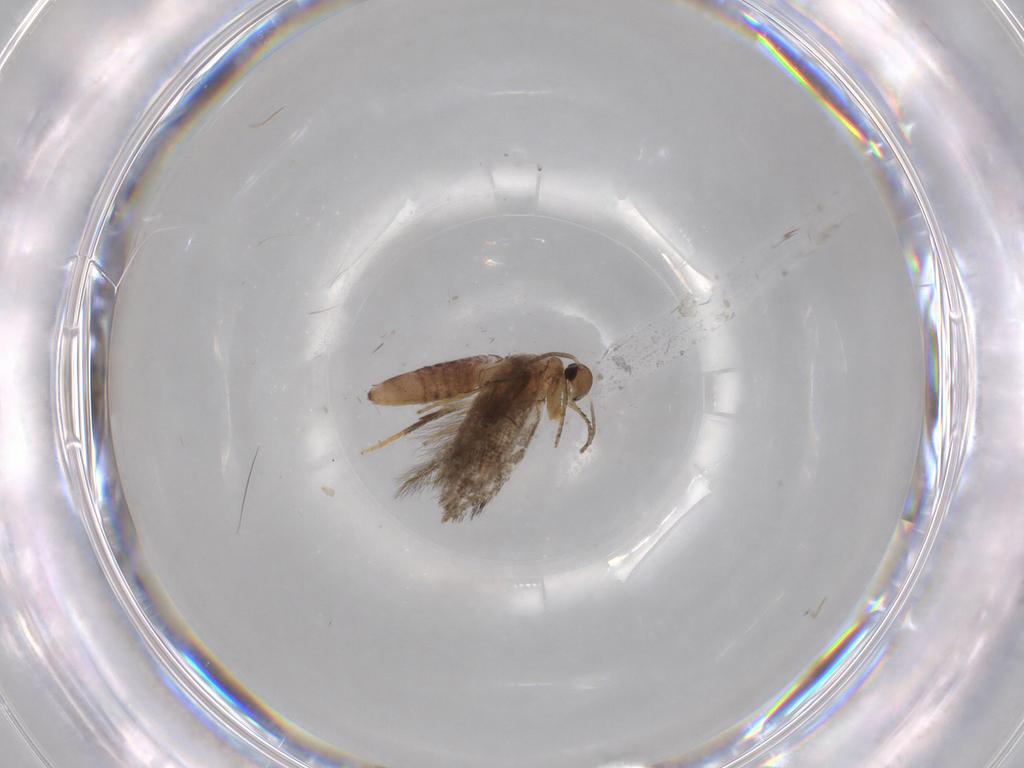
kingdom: Animalia
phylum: Arthropoda
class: Insecta
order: Lepidoptera
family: Heliozelidae
